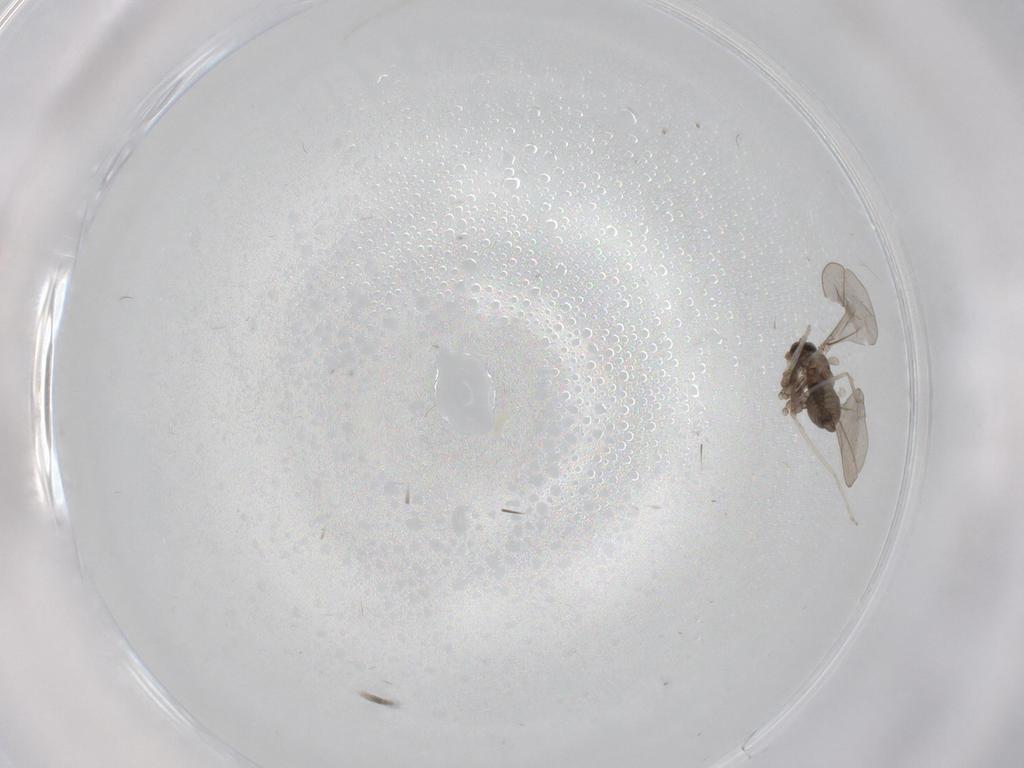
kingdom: Animalia
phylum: Arthropoda
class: Insecta
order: Diptera
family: Cecidomyiidae
